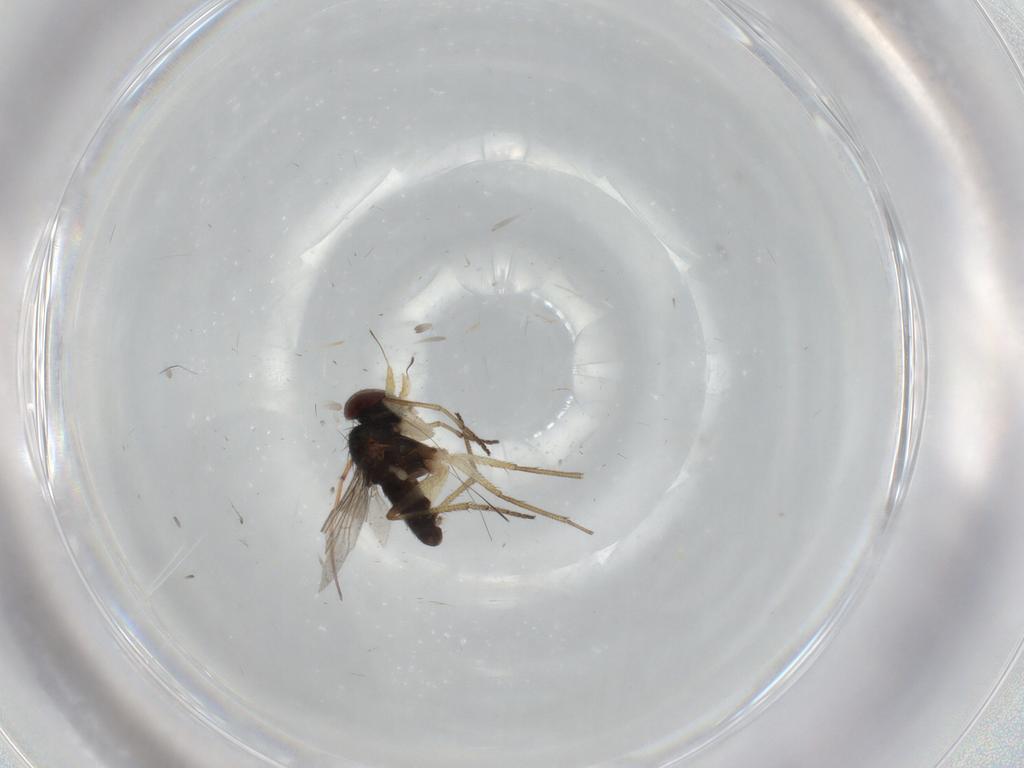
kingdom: Animalia
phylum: Arthropoda
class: Insecta
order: Diptera
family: Dolichopodidae
